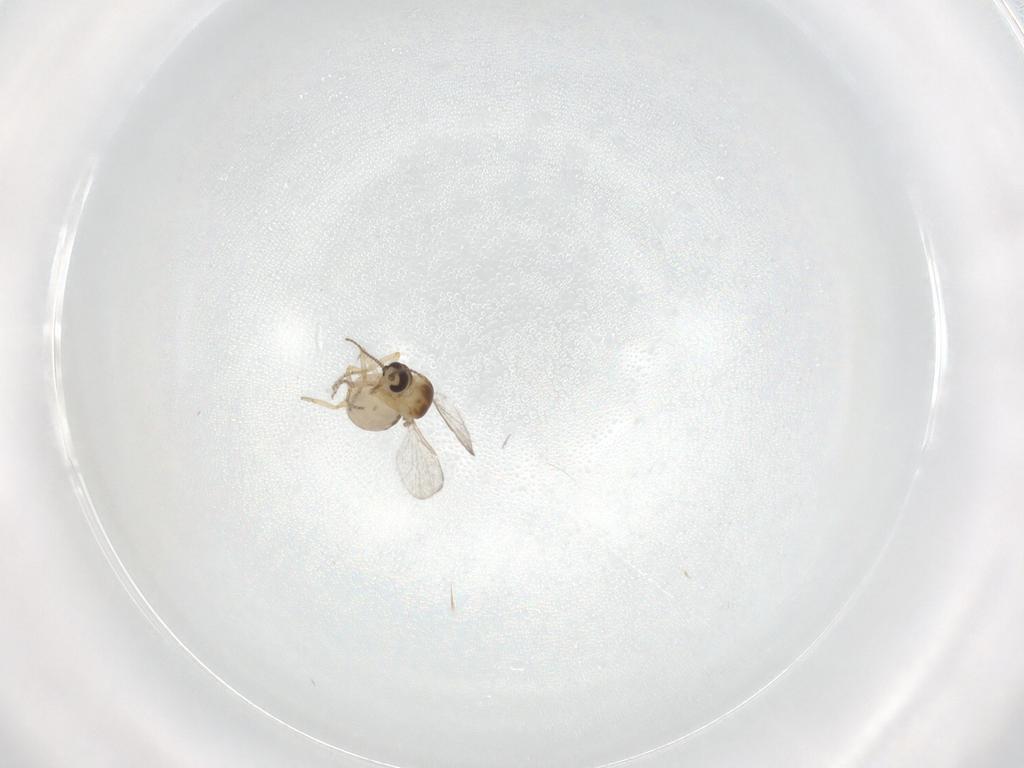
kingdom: Animalia
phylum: Arthropoda
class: Insecta
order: Diptera
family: Ceratopogonidae
